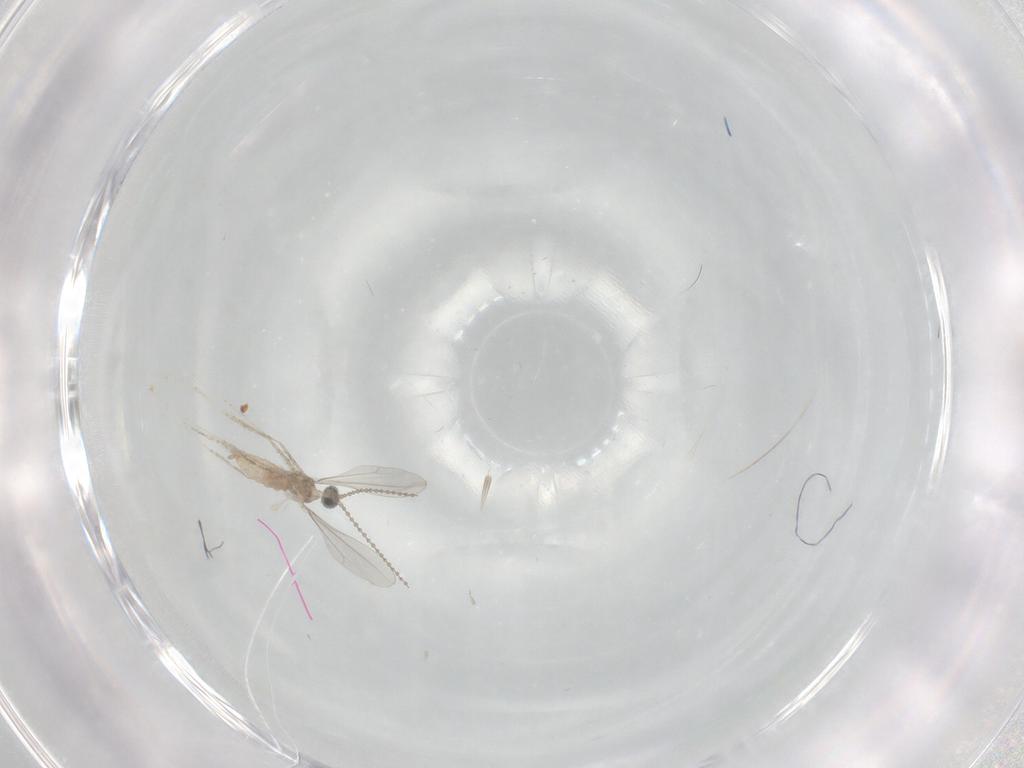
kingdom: Animalia
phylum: Arthropoda
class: Insecta
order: Diptera
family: Cecidomyiidae
